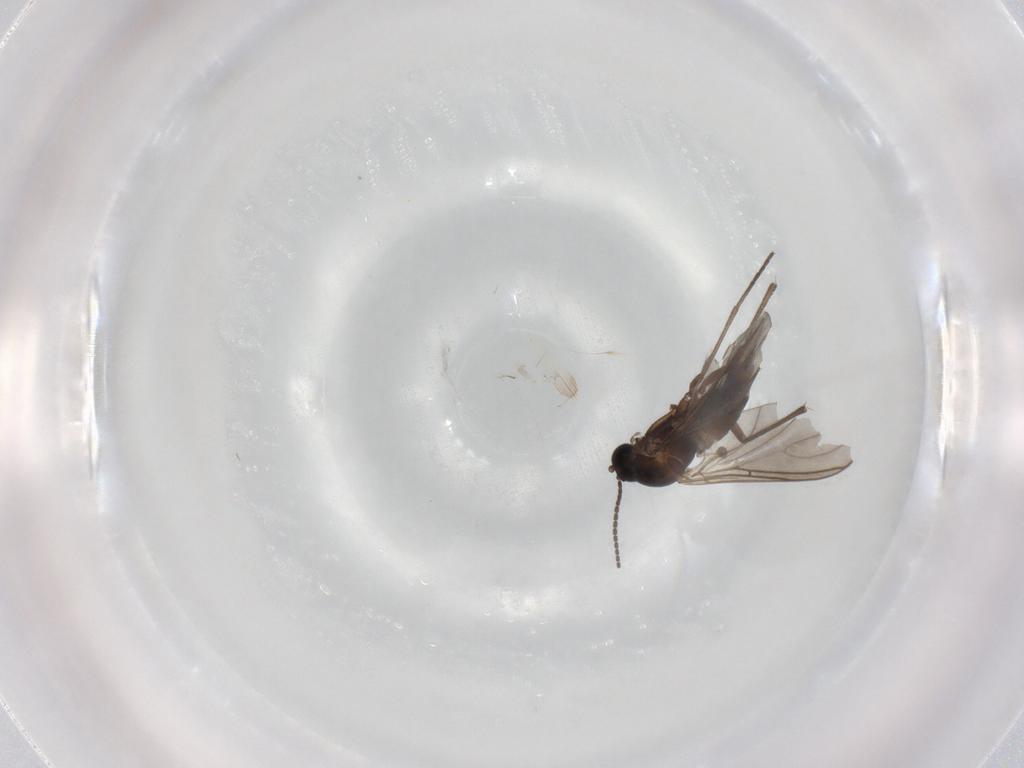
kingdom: Animalia
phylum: Arthropoda
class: Insecta
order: Diptera
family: Sciaridae
